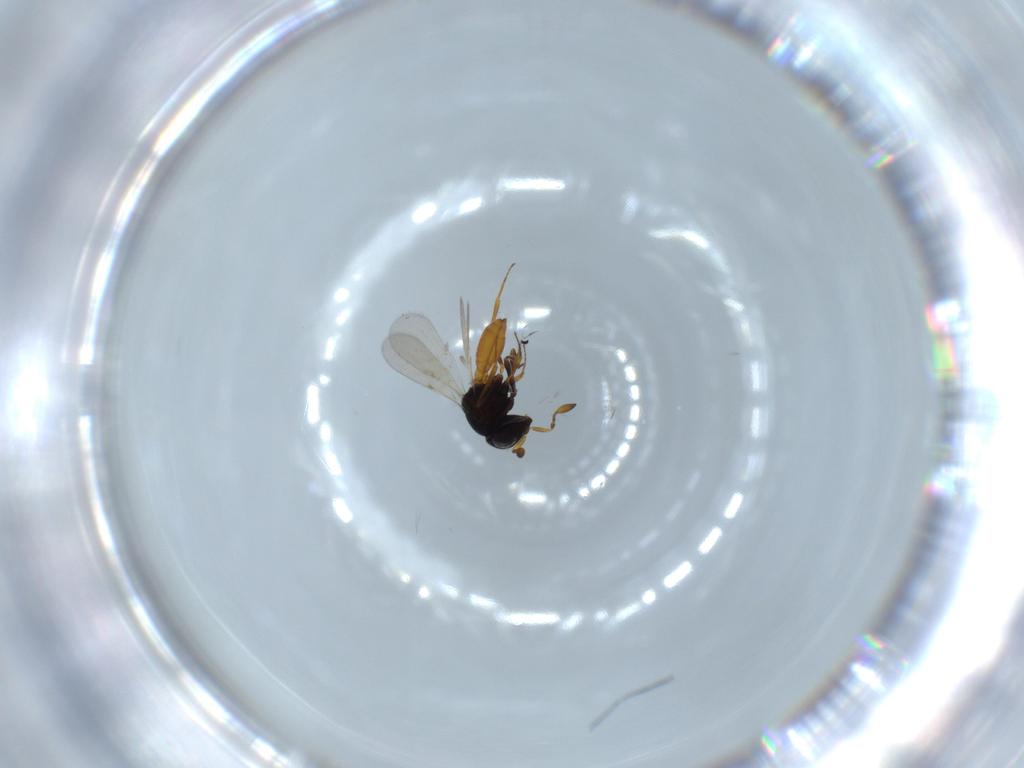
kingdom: Animalia
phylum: Arthropoda
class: Insecta
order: Hymenoptera
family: Scelionidae
